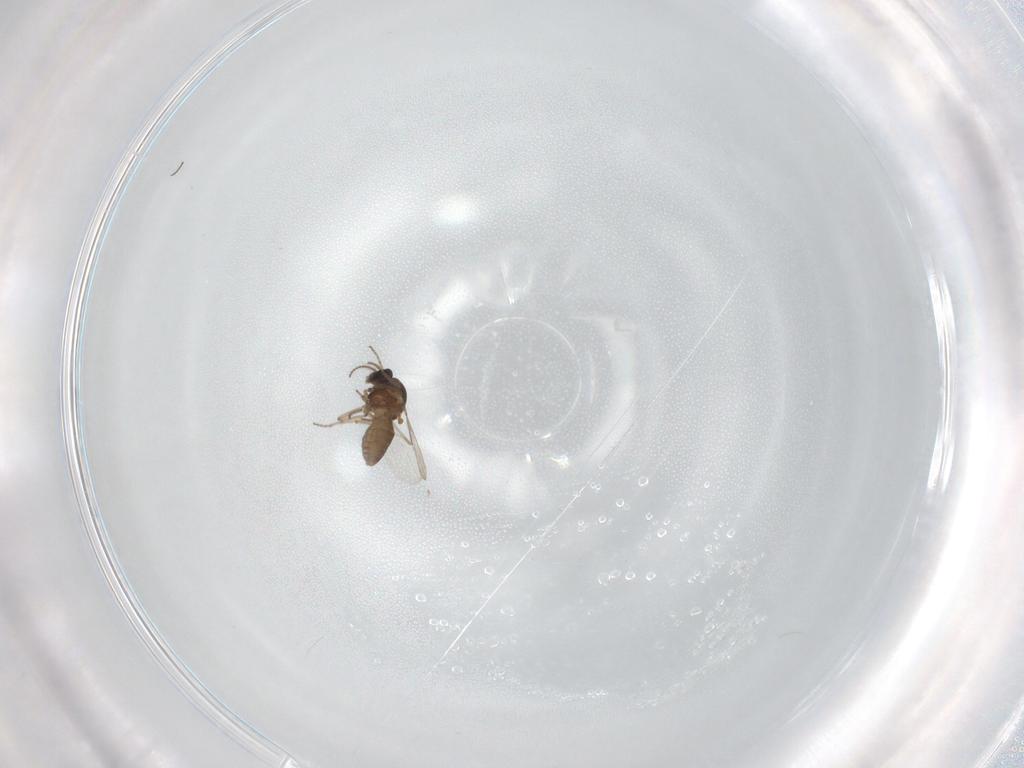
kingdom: Animalia
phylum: Arthropoda
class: Insecta
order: Diptera
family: Ceratopogonidae
